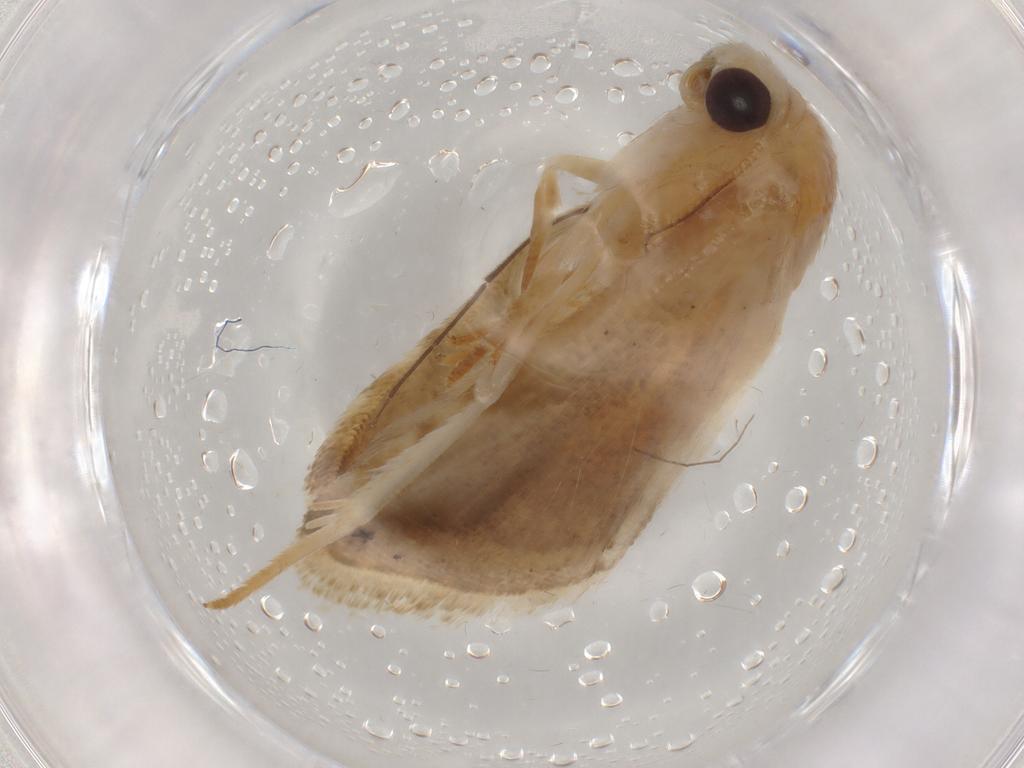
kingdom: Animalia
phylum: Arthropoda
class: Insecta
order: Lepidoptera
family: Noctuidae
